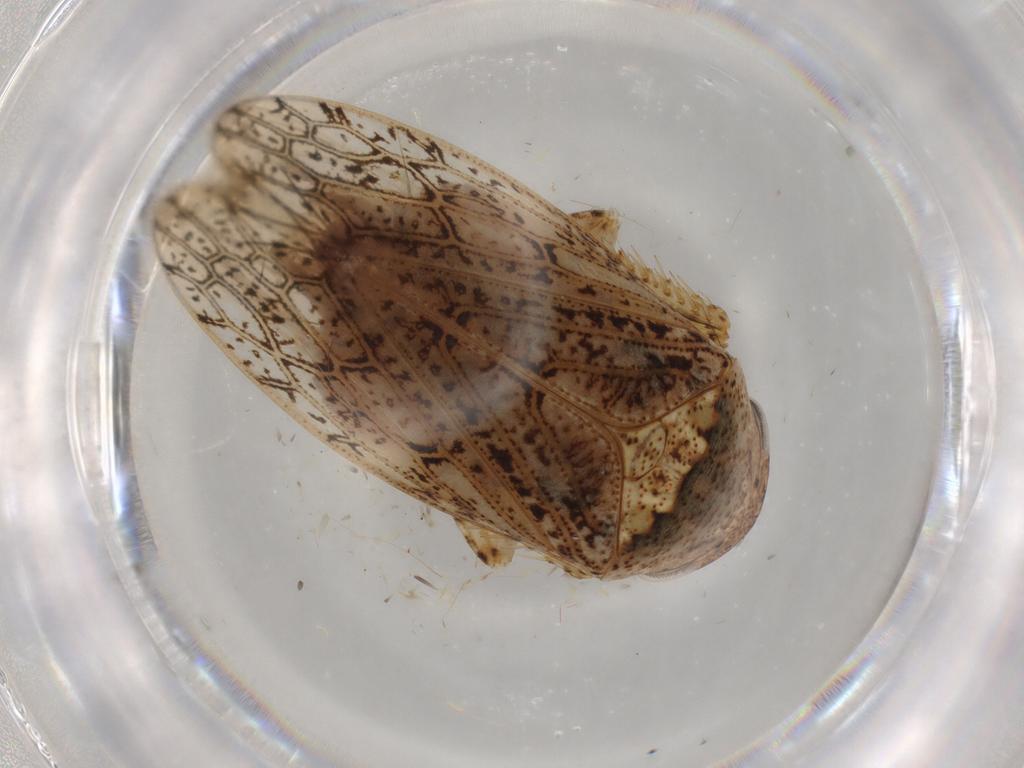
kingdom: Animalia
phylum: Arthropoda
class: Insecta
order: Hemiptera
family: Cicadellidae
